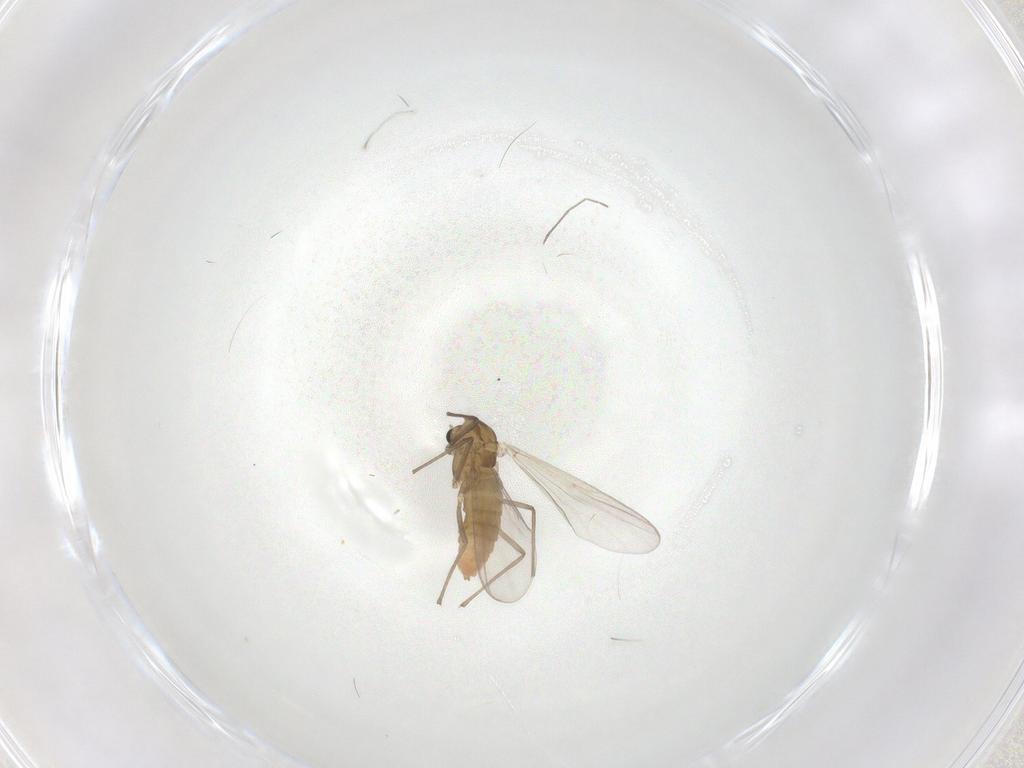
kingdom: Animalia
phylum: Arthropoda
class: Insecta
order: Diptera
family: Chironomidae
